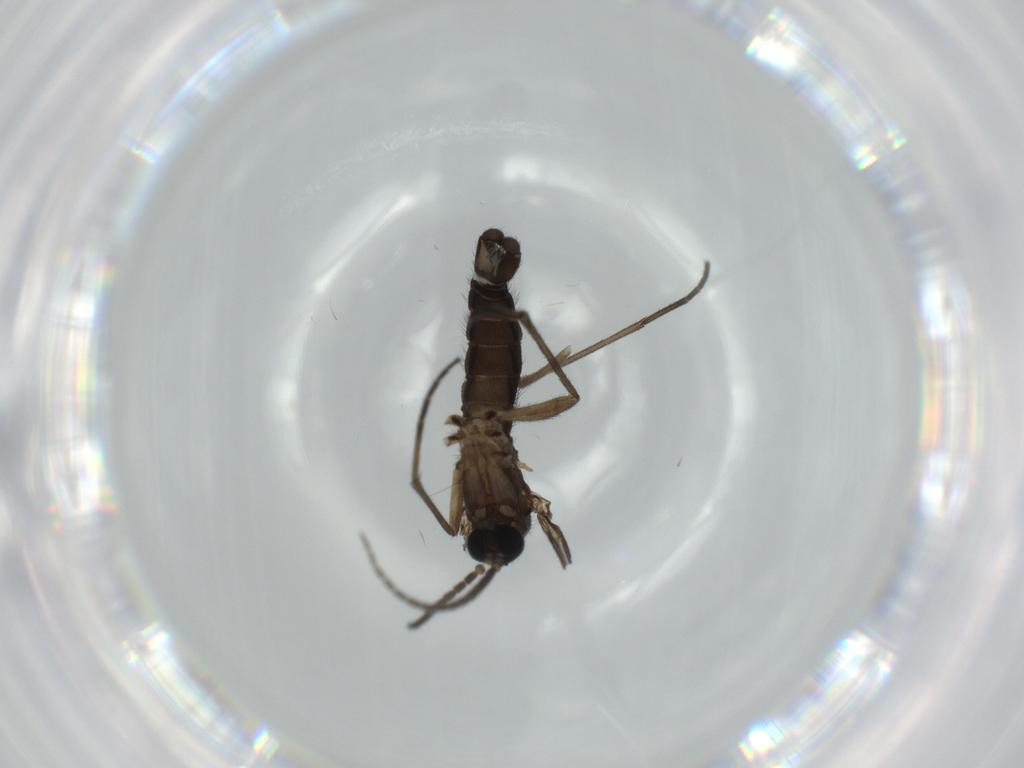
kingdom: Animalia
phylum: Arthropoda
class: Insecta
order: Diptera
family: Sciaridae
